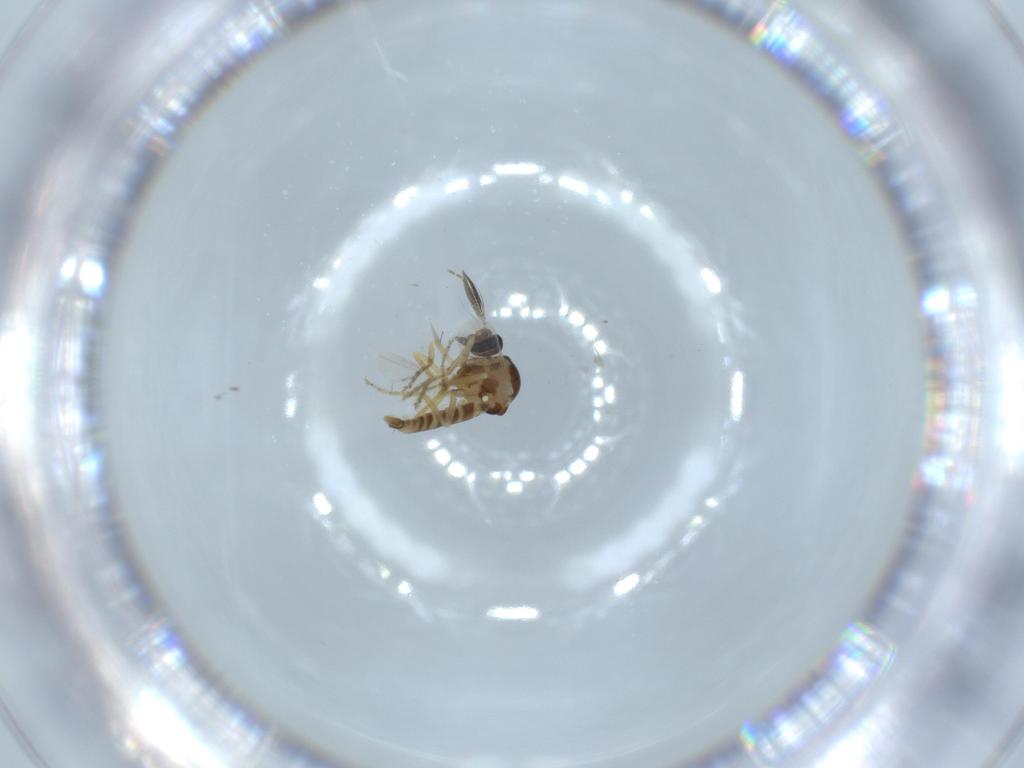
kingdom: Animalia
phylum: Arthropoda
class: Insecta
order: Diptera
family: Ceratopogonidae
